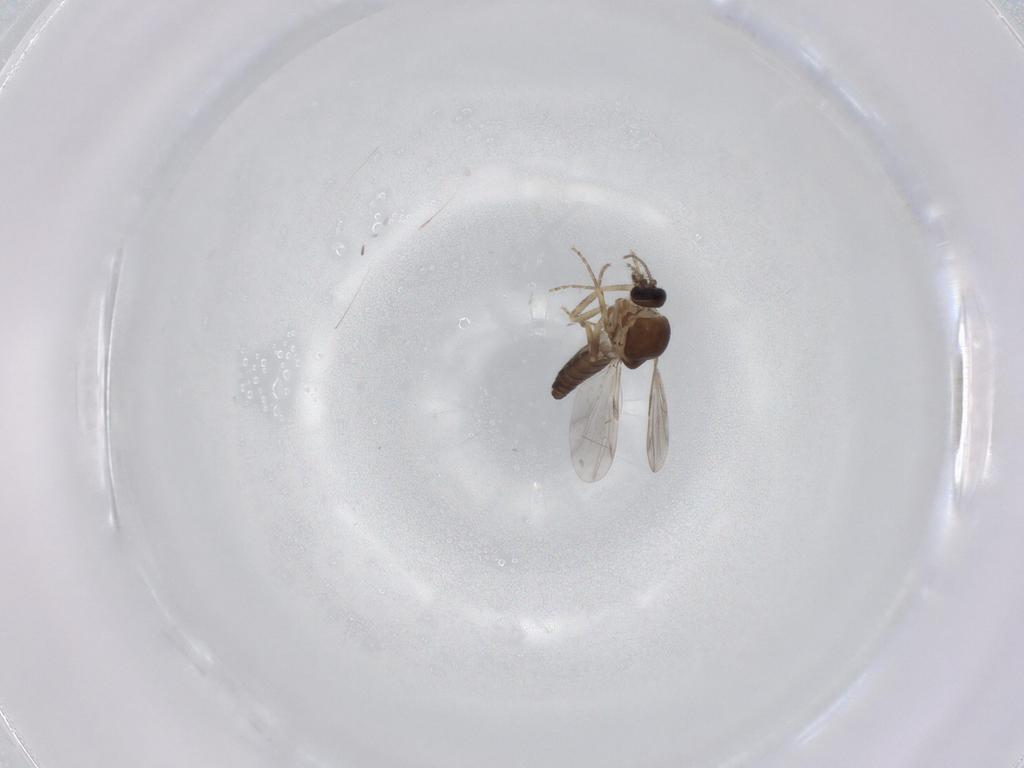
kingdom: Animalia
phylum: Arthropoda
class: Insecta
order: Diptera
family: Ceratopogonidae
